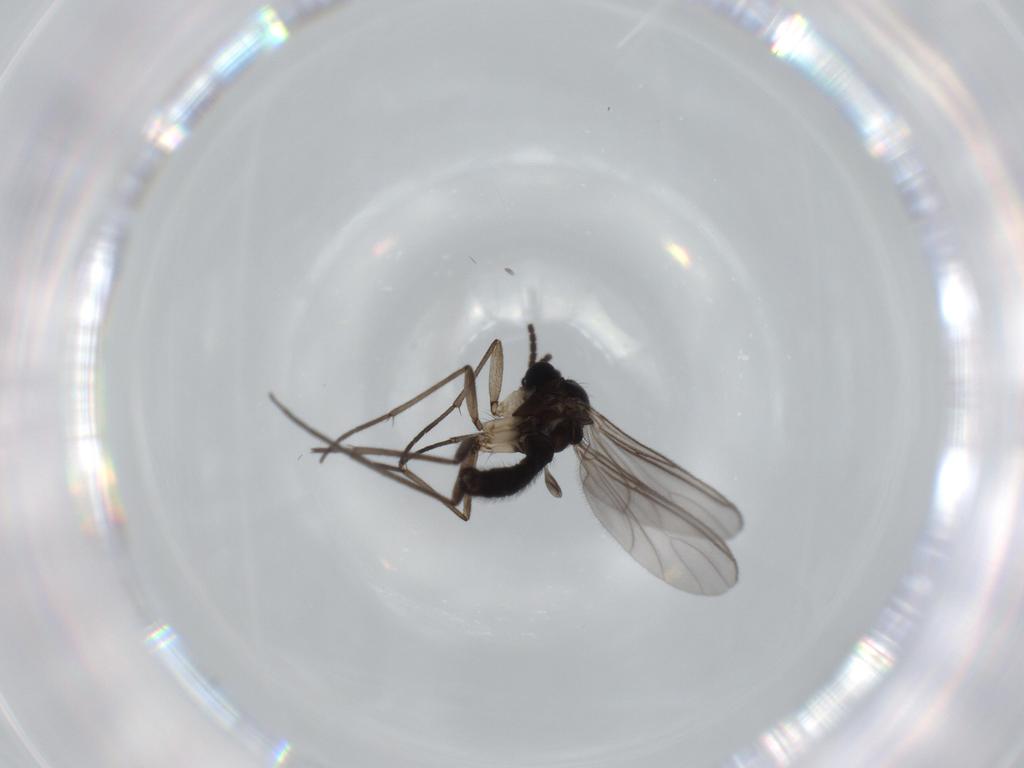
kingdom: Animalia
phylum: Arthropoda
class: Insecta
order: Diptera
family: Sciaridae
